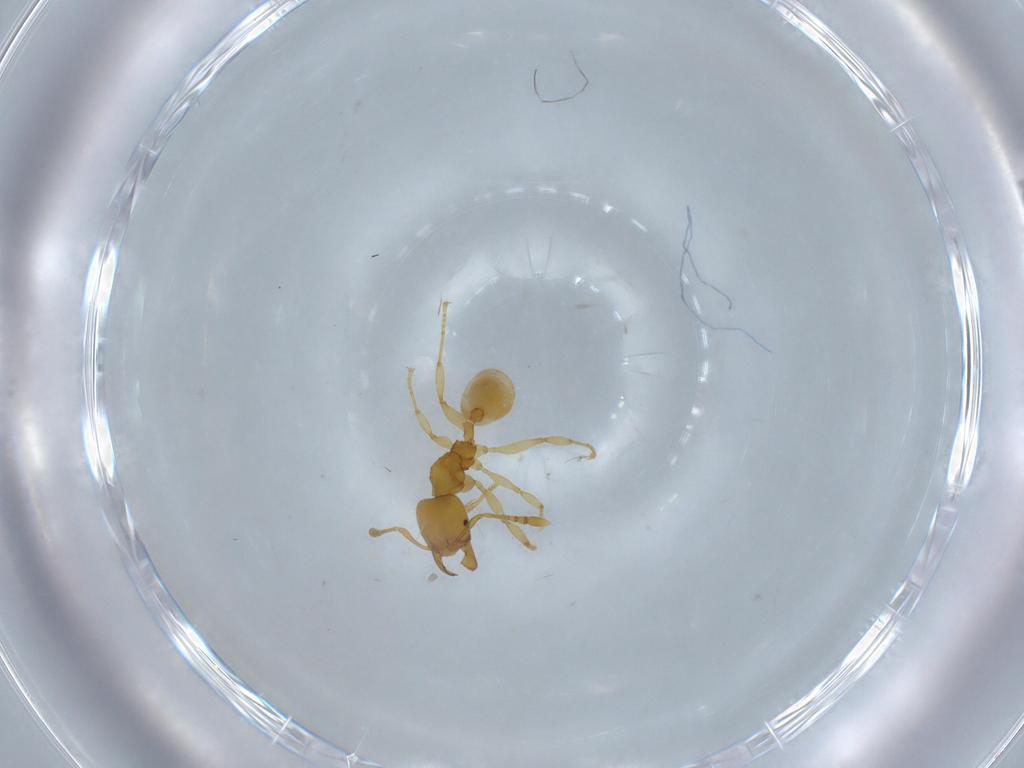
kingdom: Animalia
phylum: Arthropoda
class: Insecta
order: Hymenoptera
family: Formicidae
